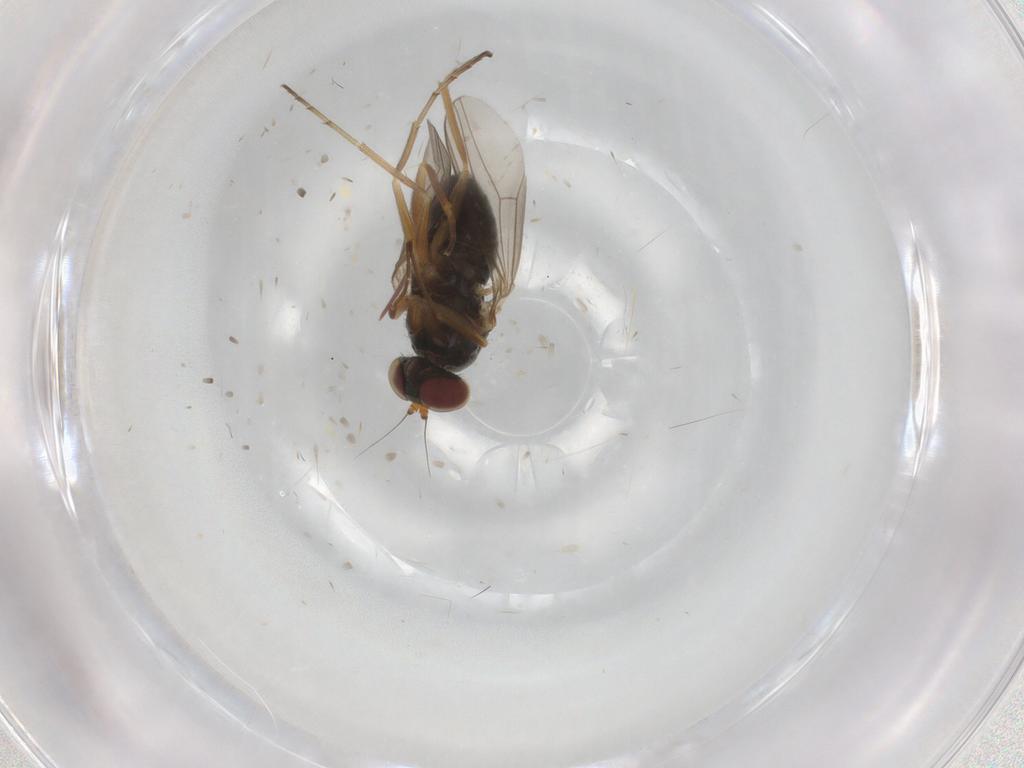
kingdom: Animalia
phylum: Arthropoda
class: Insecta
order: Diptera
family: Dolichopodidae
